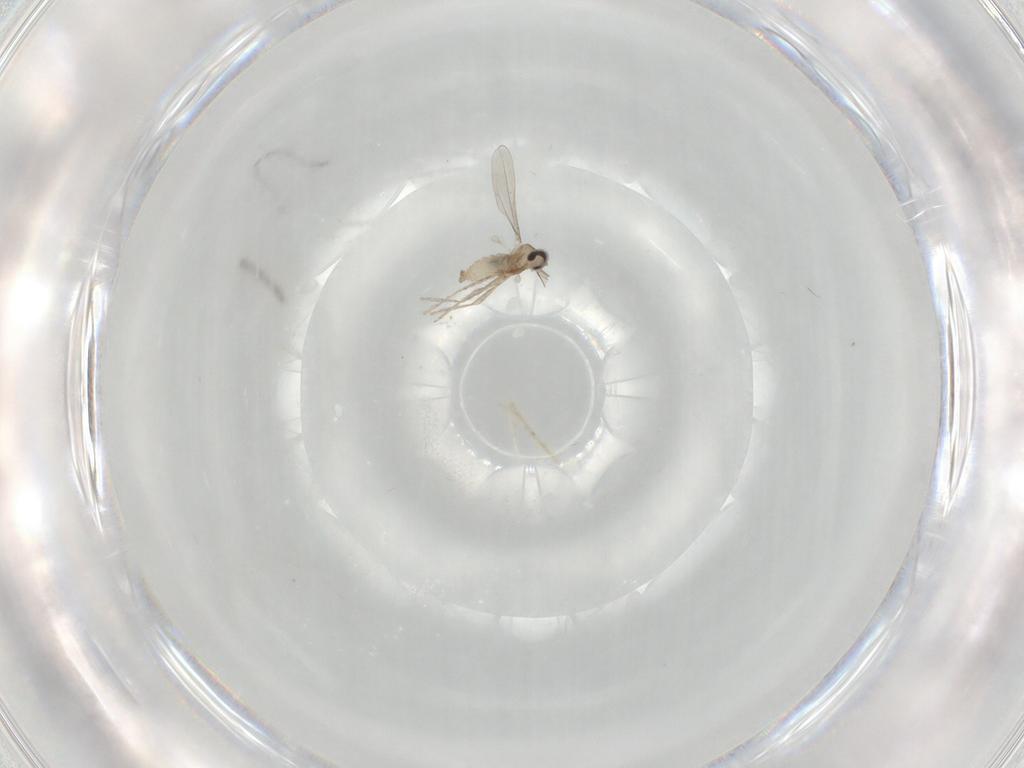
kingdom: Animalia
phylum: Arthropoda
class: Insecta
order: Diptera
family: Cecidomyiidae
